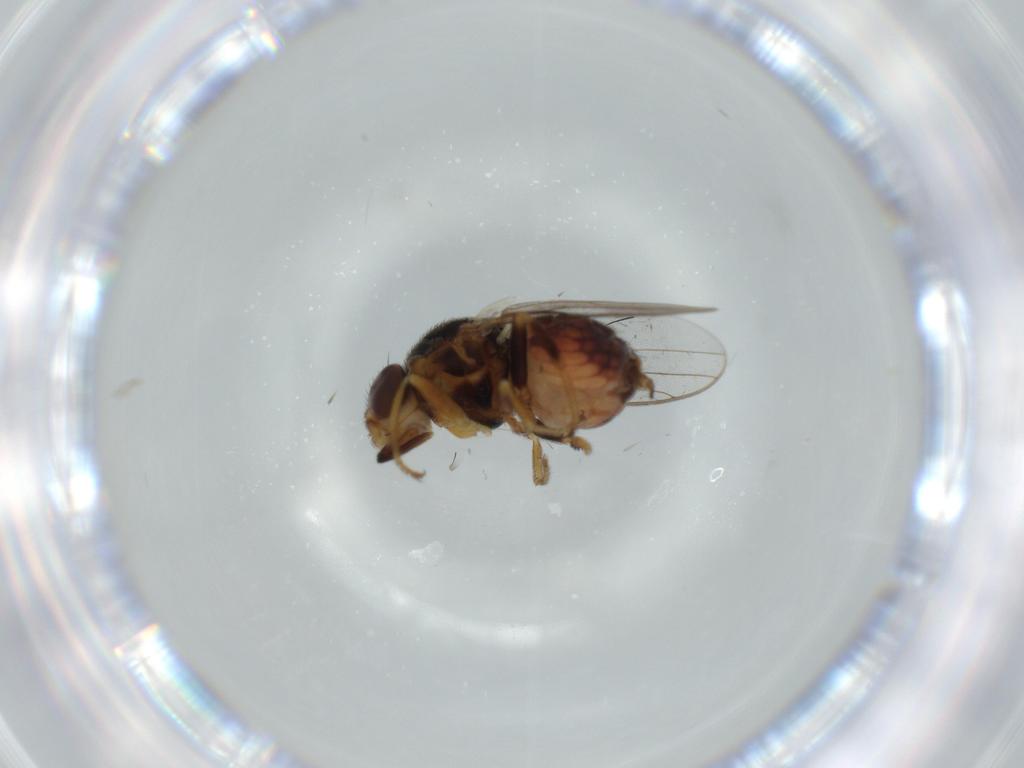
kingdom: Animalia
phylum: Arthropoda
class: Insecta
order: Diptera
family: Chloropidae
